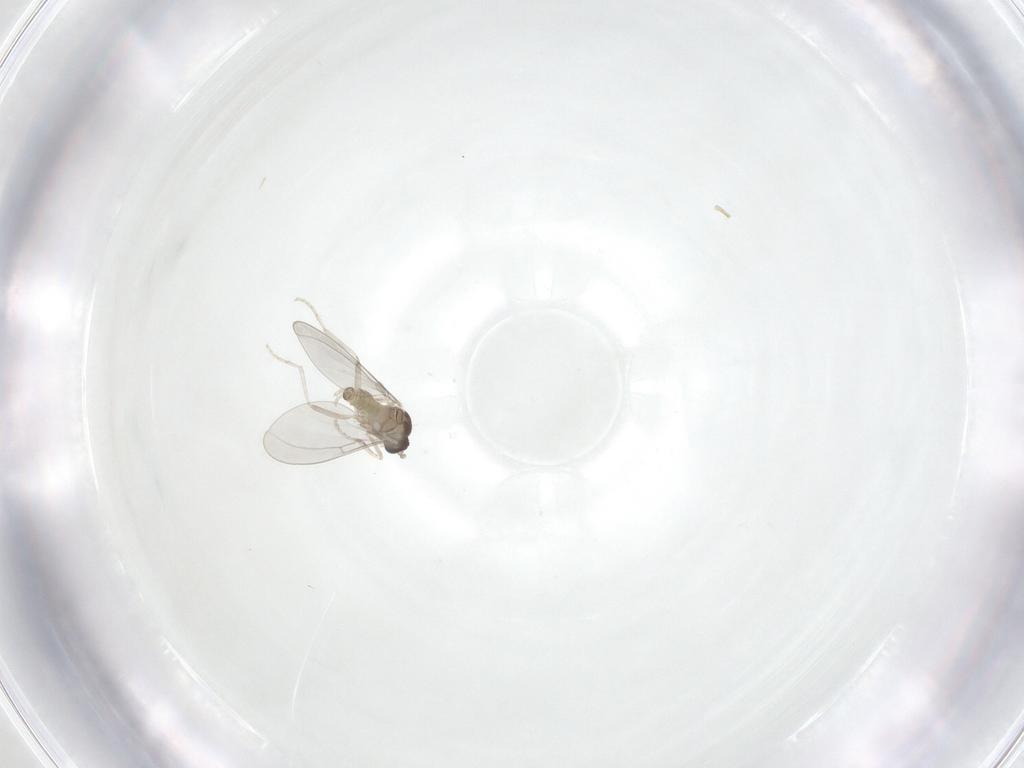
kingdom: Animalia
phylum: Arthropoda
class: Insecta
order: Diptera
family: Cecidomyiidae
